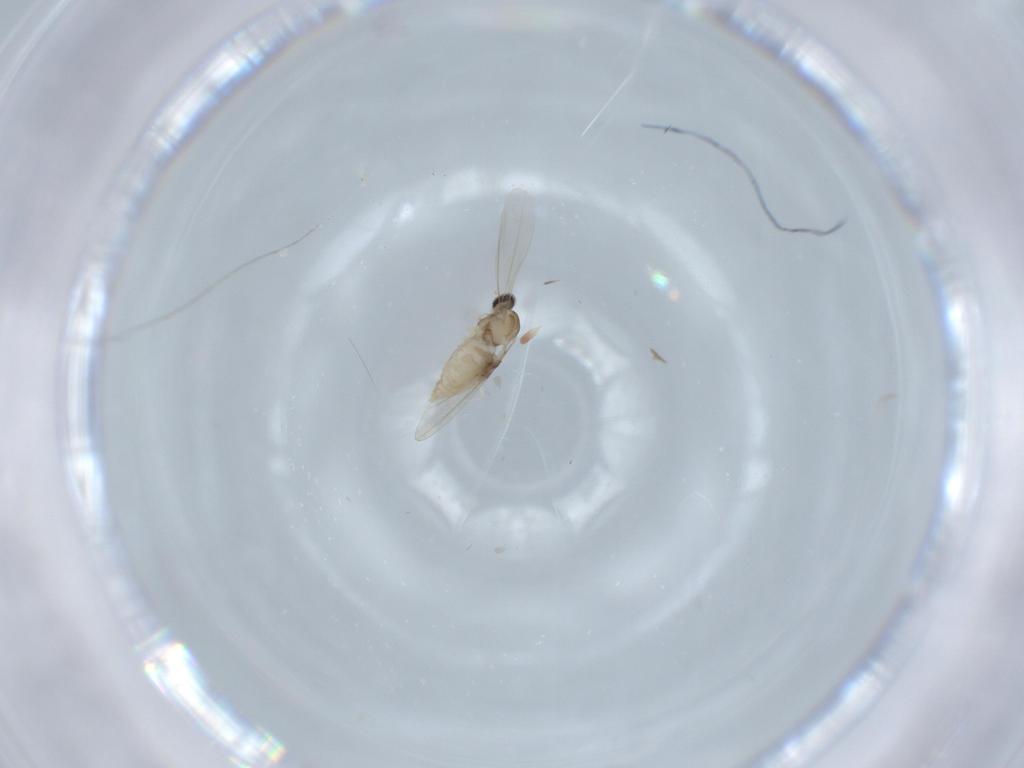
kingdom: Animalia
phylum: Arthropoda
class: Insecta
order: Diptera
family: Cecidomyiidae
